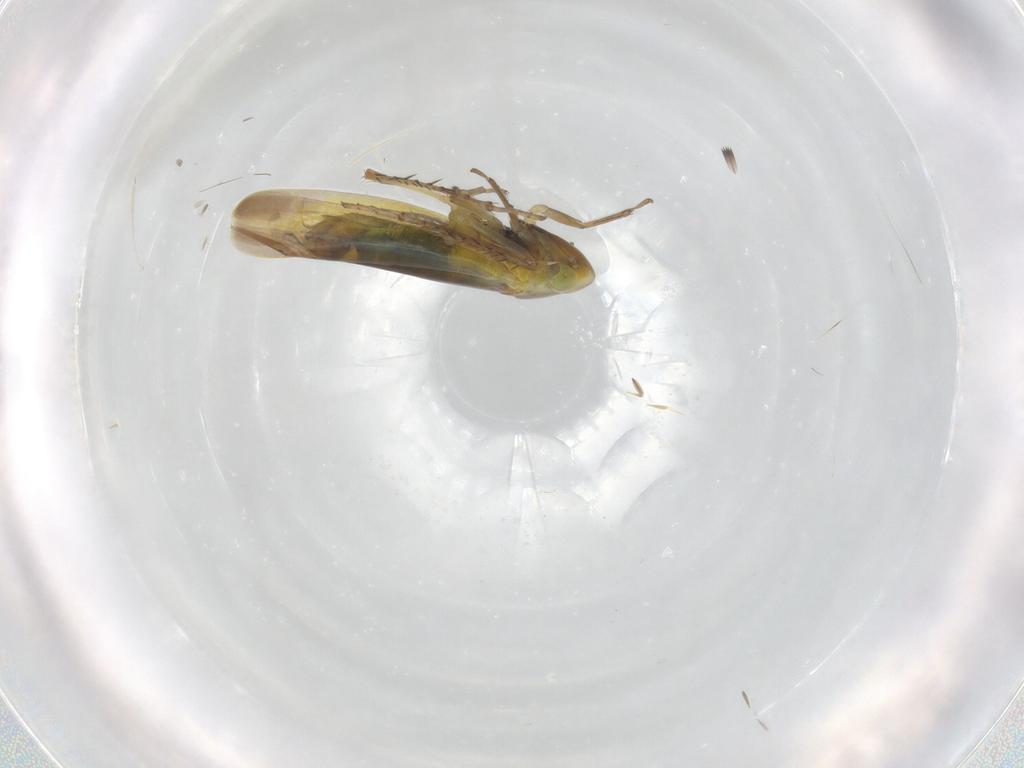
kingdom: Animalia
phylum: Arthropoda
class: Insecta
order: Hemiptera
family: Cicadellidae
